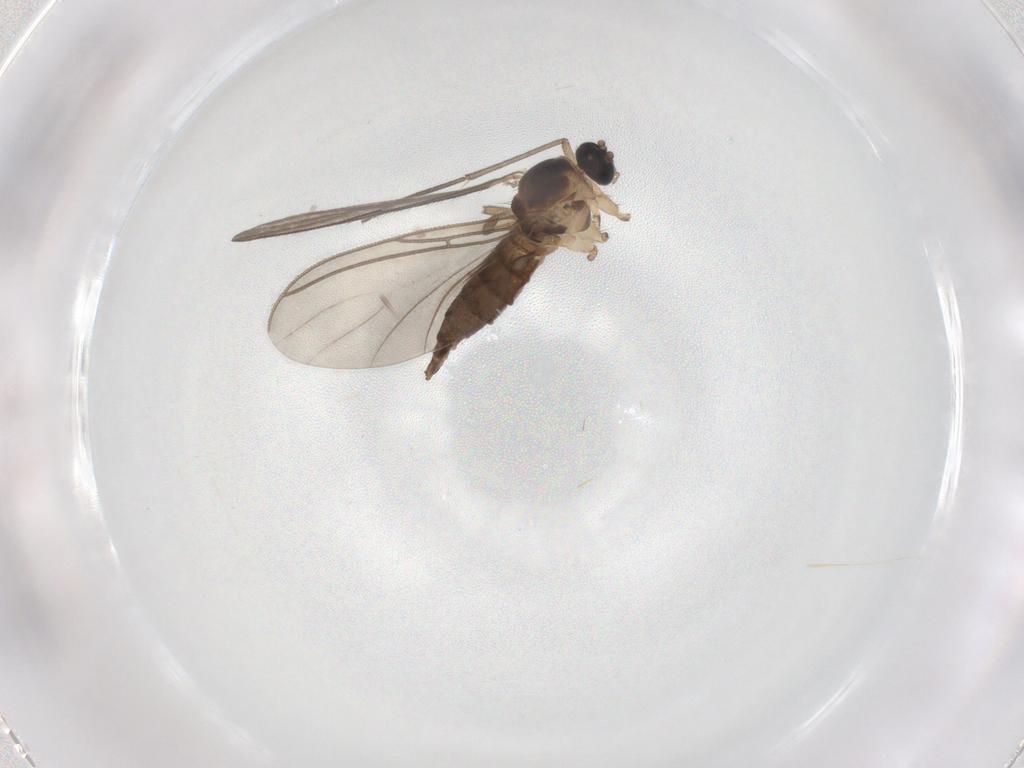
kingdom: Animalia
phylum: Arthropoda
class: Insecta
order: Diptera
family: Sciaridae
